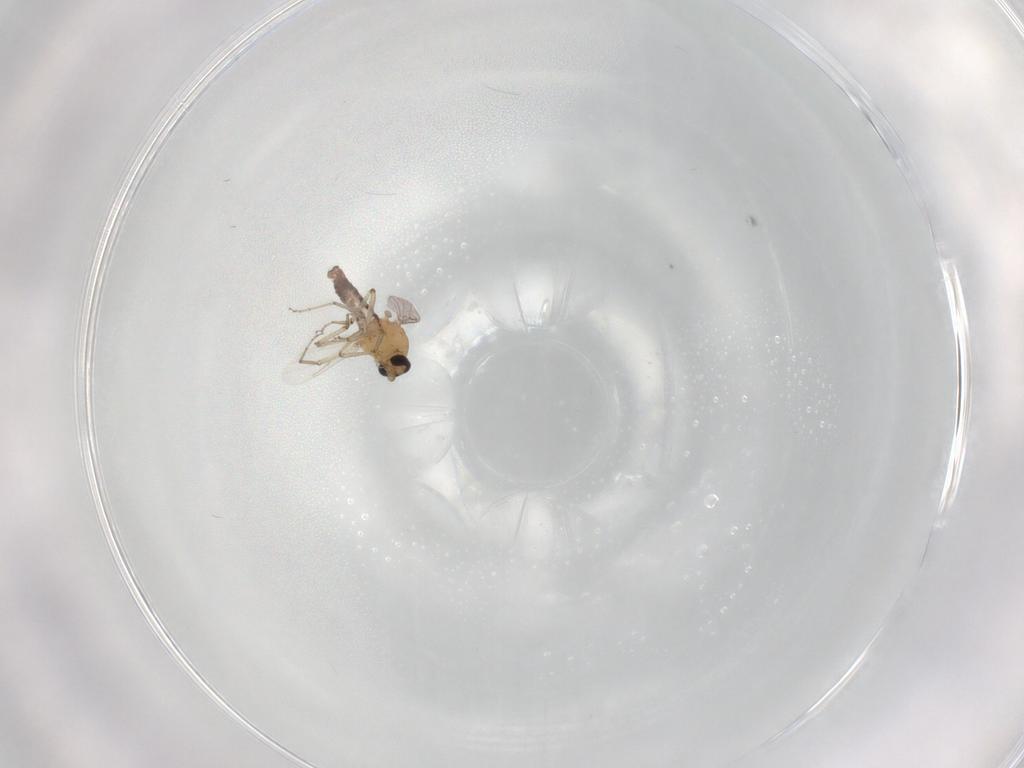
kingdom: Animalia
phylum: Arthropoda
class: Insecta
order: Diptera
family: Ceratopogonidae
